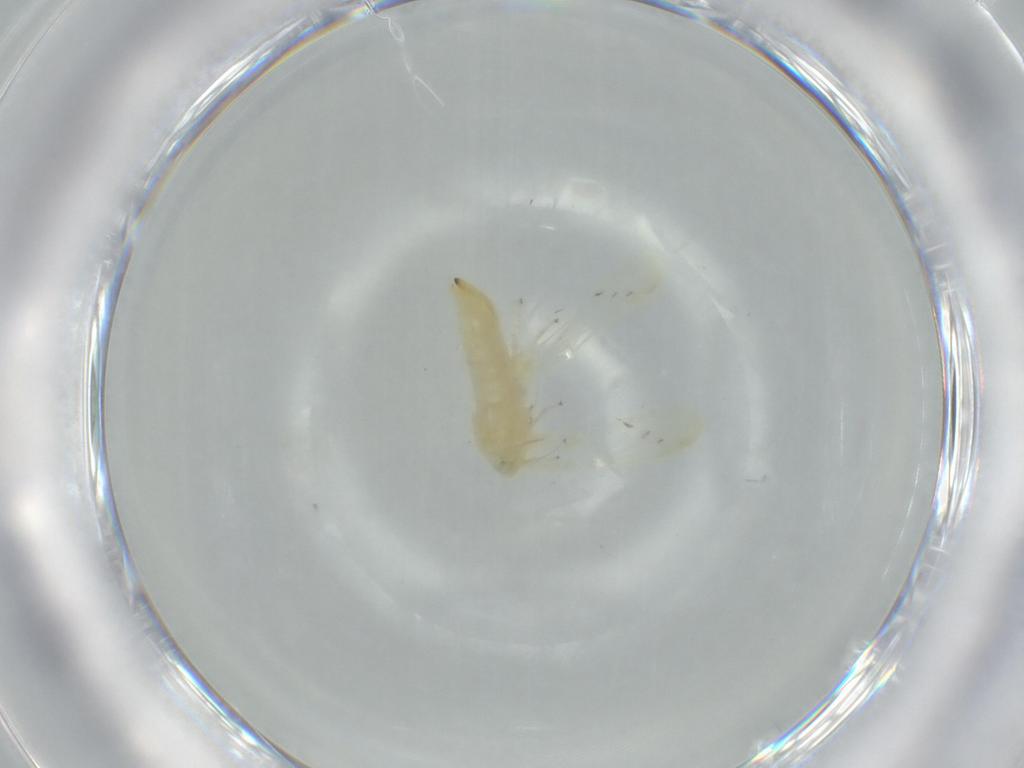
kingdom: Animalia
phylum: Arthropoda
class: Insecta
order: Hemiptera
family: Cicadellidae
